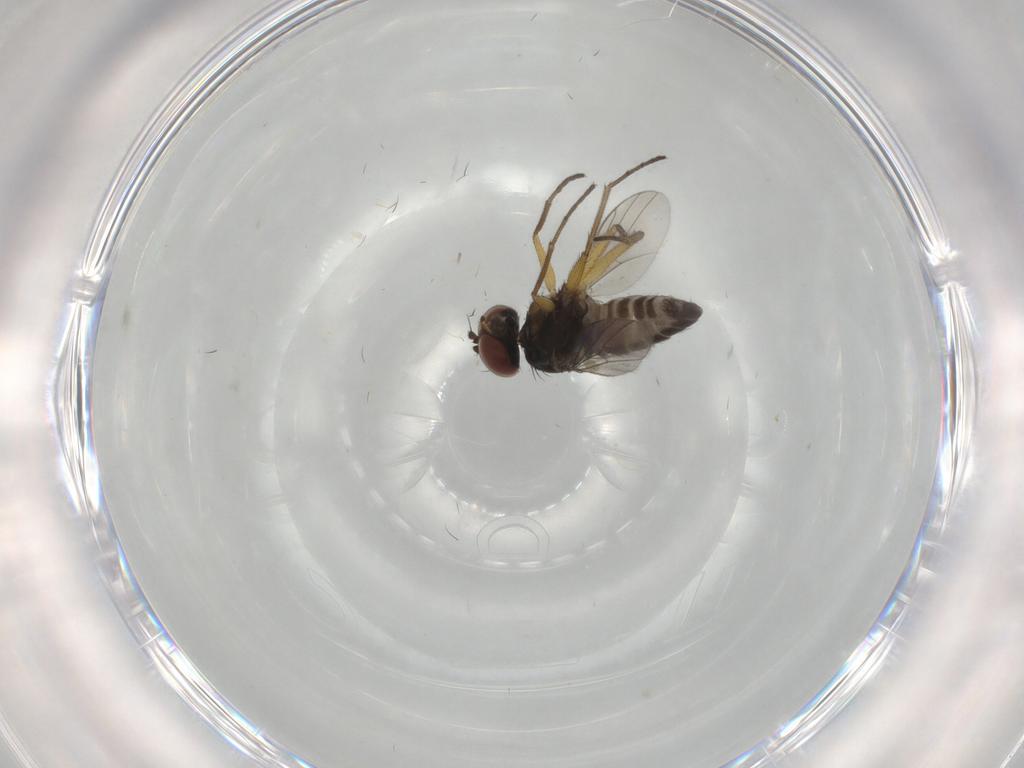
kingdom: Animalia
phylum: Arthropoda
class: Insecta
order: Diptera
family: Dolichopodidae
